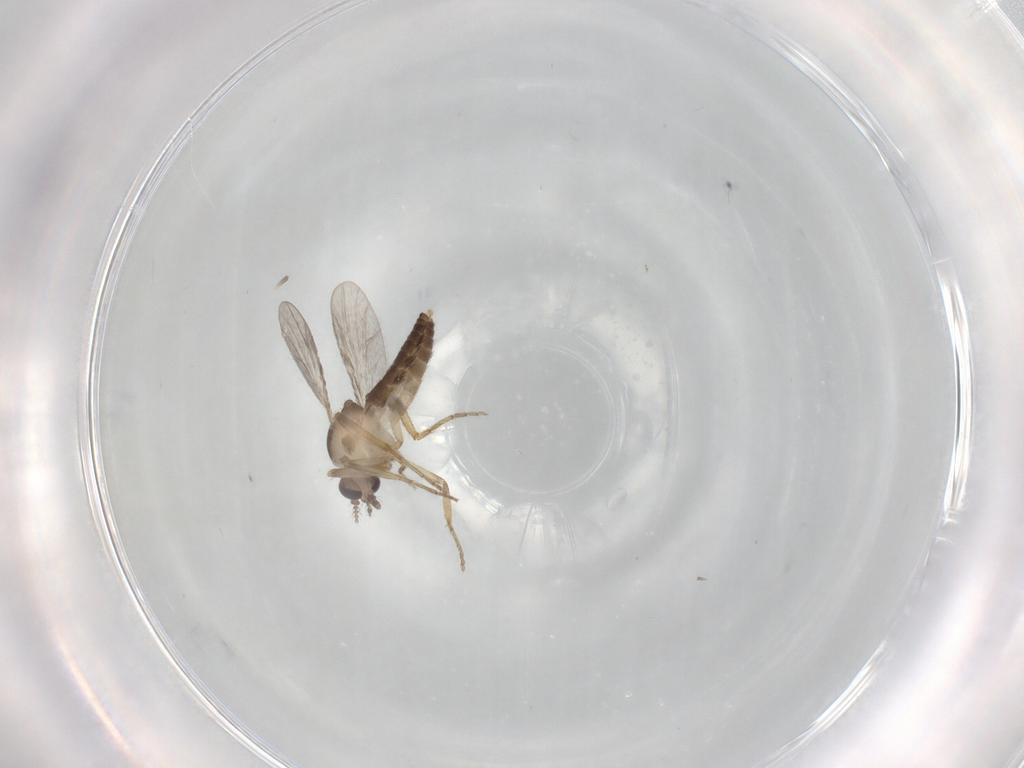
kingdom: Animalia
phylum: Arthropoda
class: Insecta
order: Diptera
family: Ceratopogonidae
